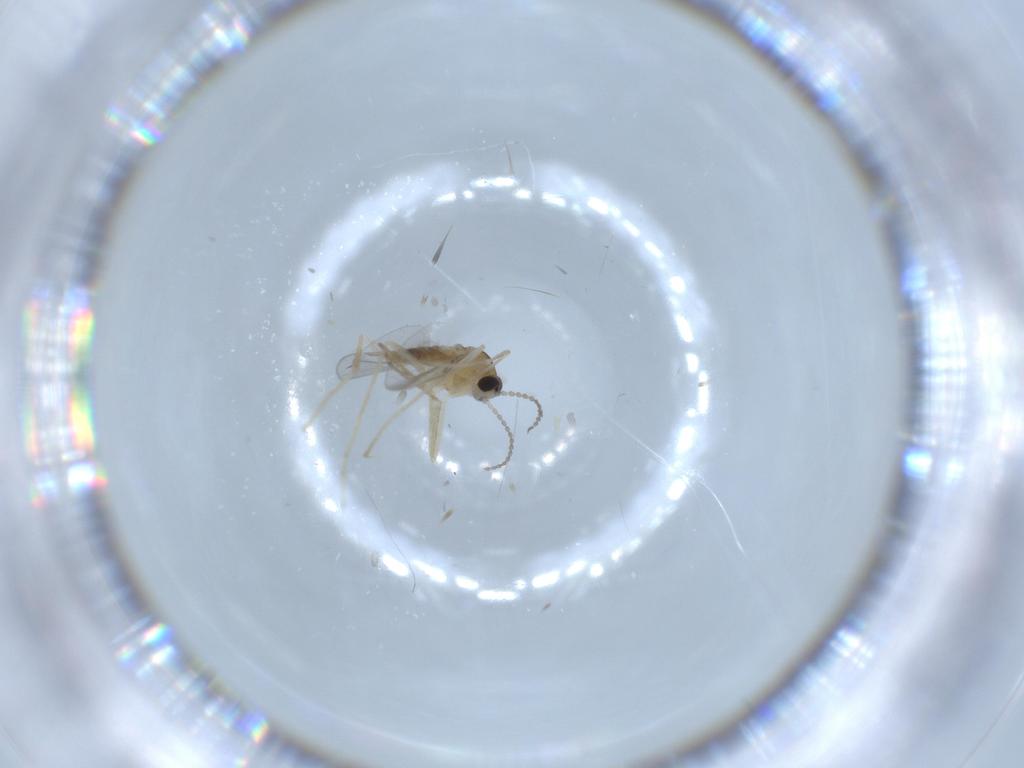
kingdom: Animalia
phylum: Arthropoda
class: Insecta
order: Diptera
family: Cecidomyiidae
